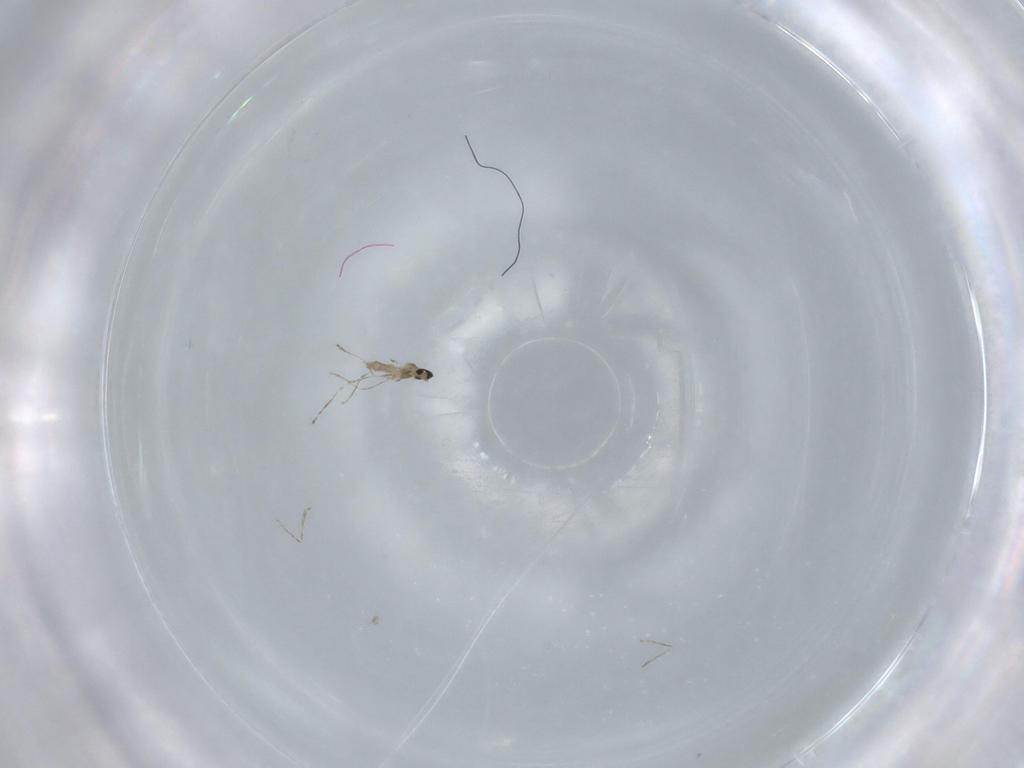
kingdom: Animalia
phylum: Arthropoda
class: Insecta
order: Diptera
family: Cecidomyiidae
